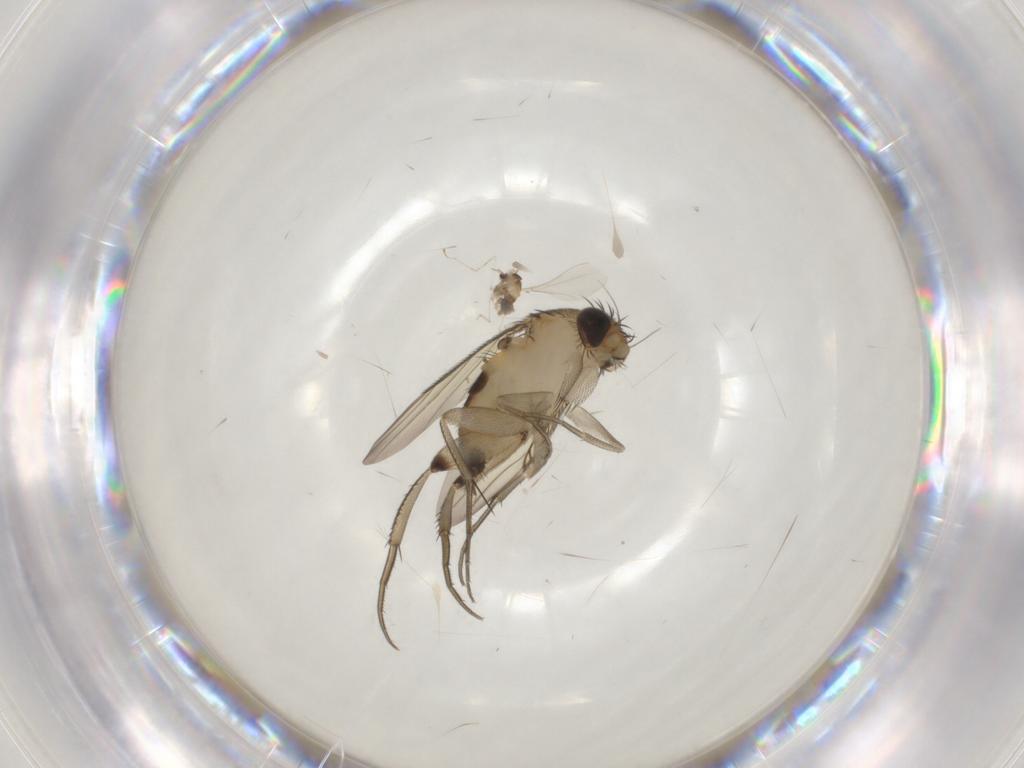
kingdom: Animalia
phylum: Arthropoda
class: Insecta
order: Diptera
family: Phoridae
